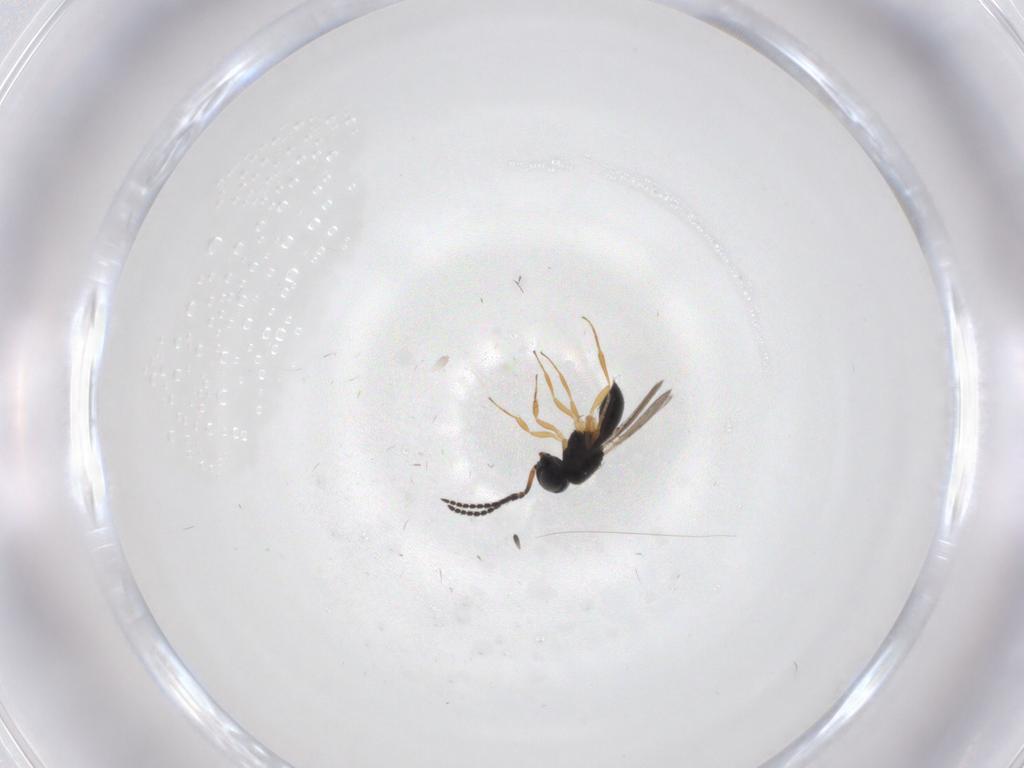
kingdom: Animalia
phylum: Arthropoda
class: Insecta
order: Hymenoptera
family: Scelionidae
